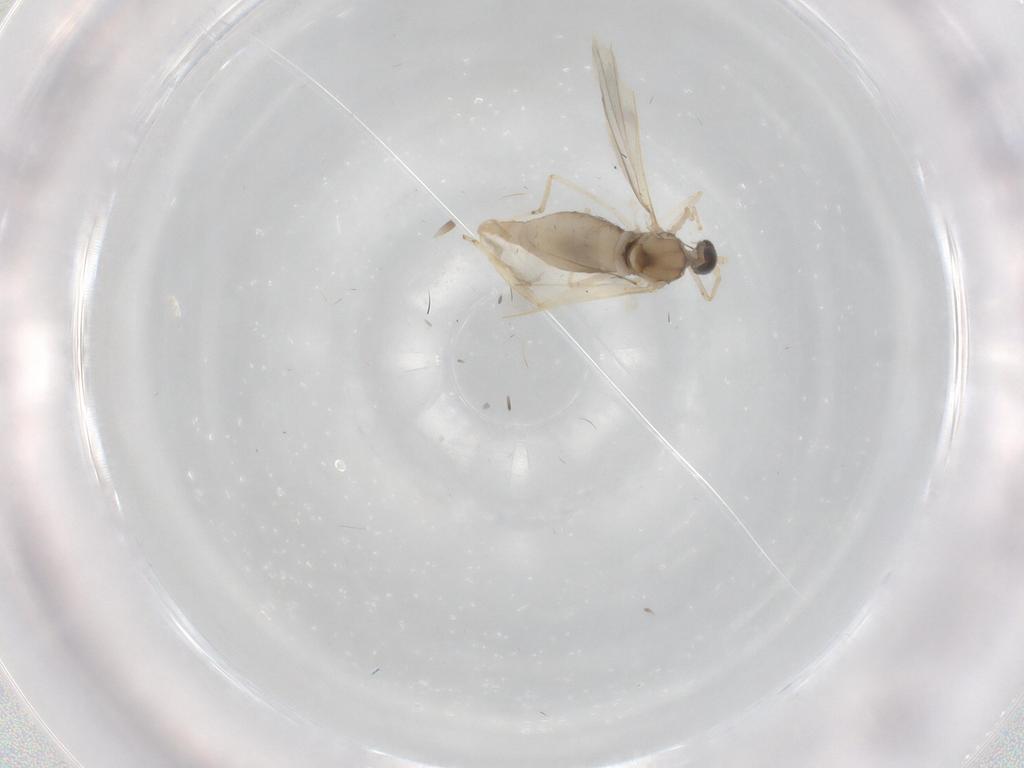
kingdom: Animalia
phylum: Arthropoda
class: Insecta
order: Diptera
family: Cecidomyiidae
